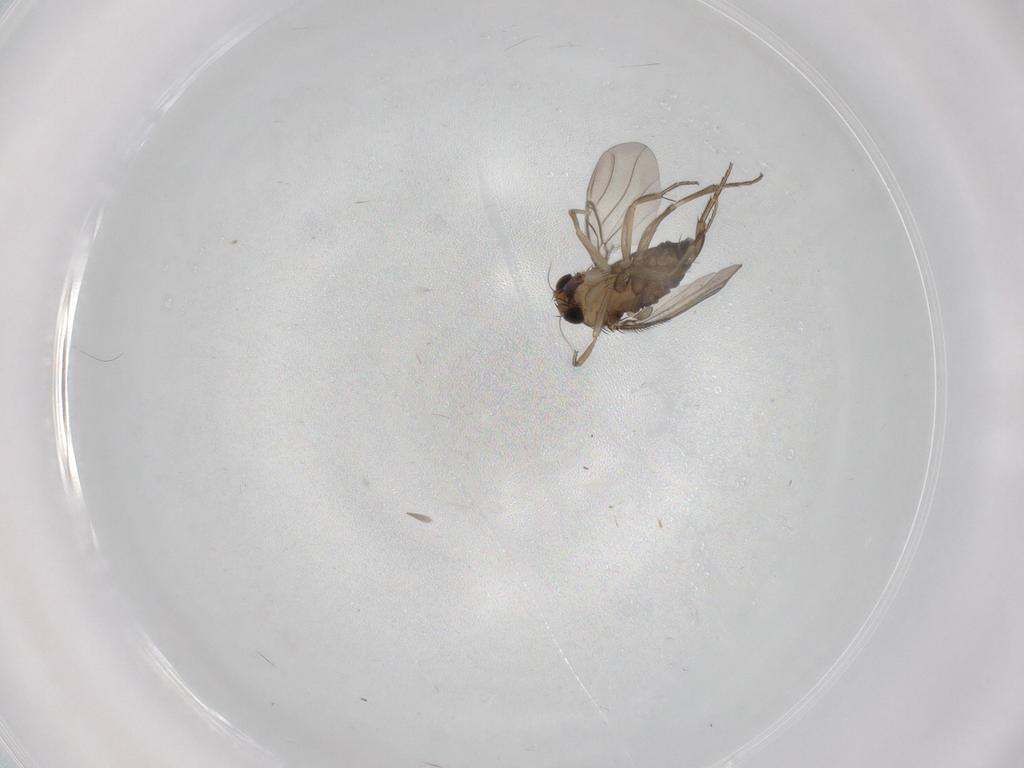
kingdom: Animalia
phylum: Arthropoda
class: Insecta
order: Diptera
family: Phoridae
